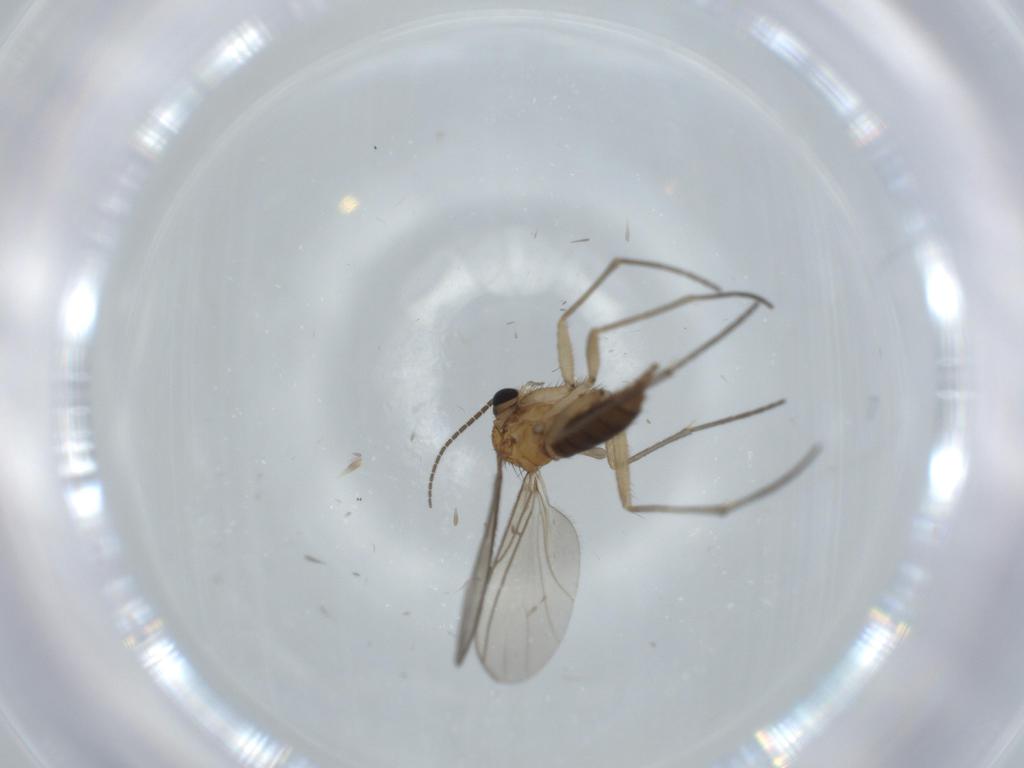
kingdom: Animalia
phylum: Arthropoda
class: Insecta
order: Diptera
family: Sciaridae
